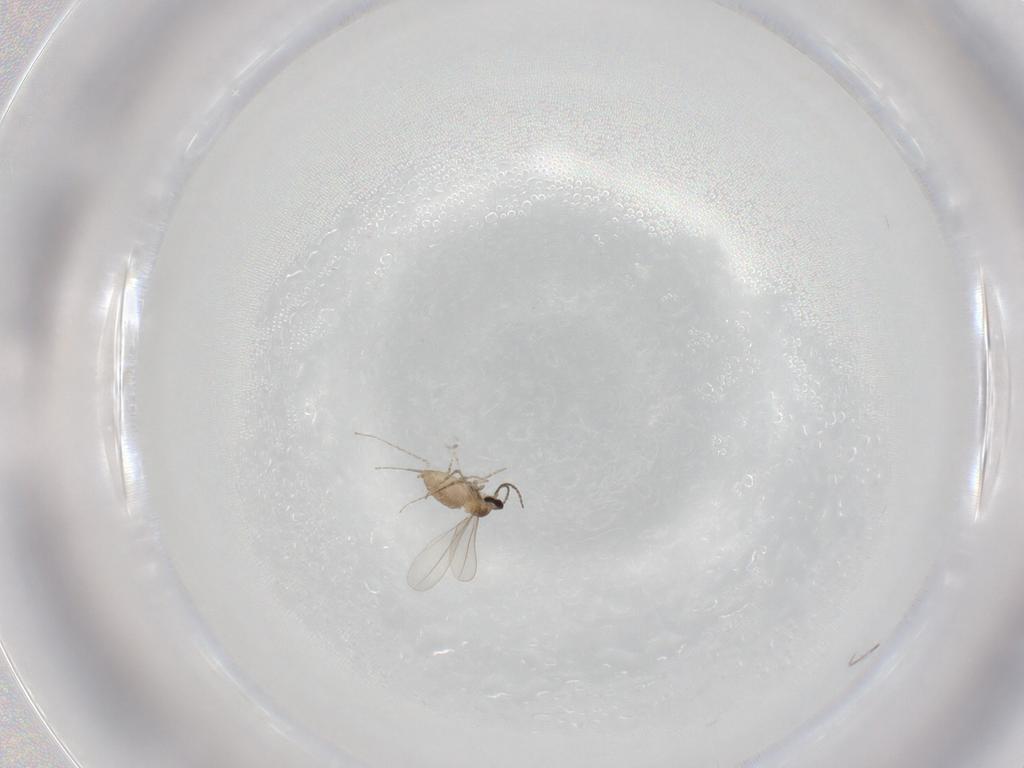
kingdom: Animalia
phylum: Arthropoda
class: Insecta
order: Diptera
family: Cecidomyiidae
